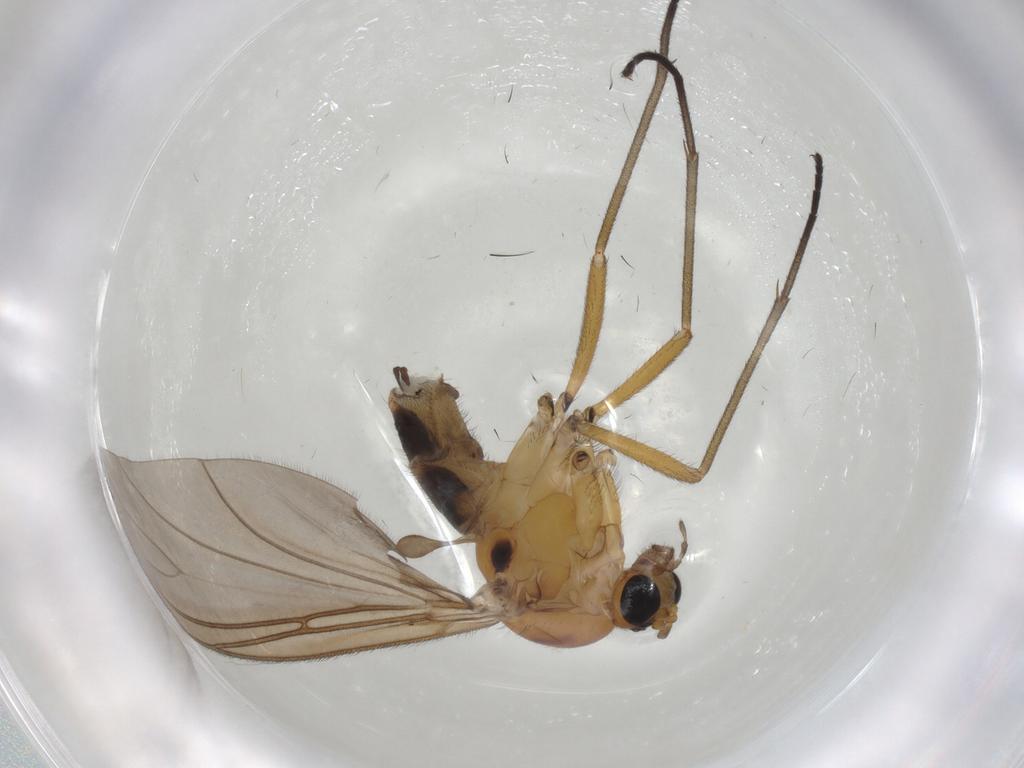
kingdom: Animalia
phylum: Arthropoda
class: Insecta
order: Diptera
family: Sciaridae
